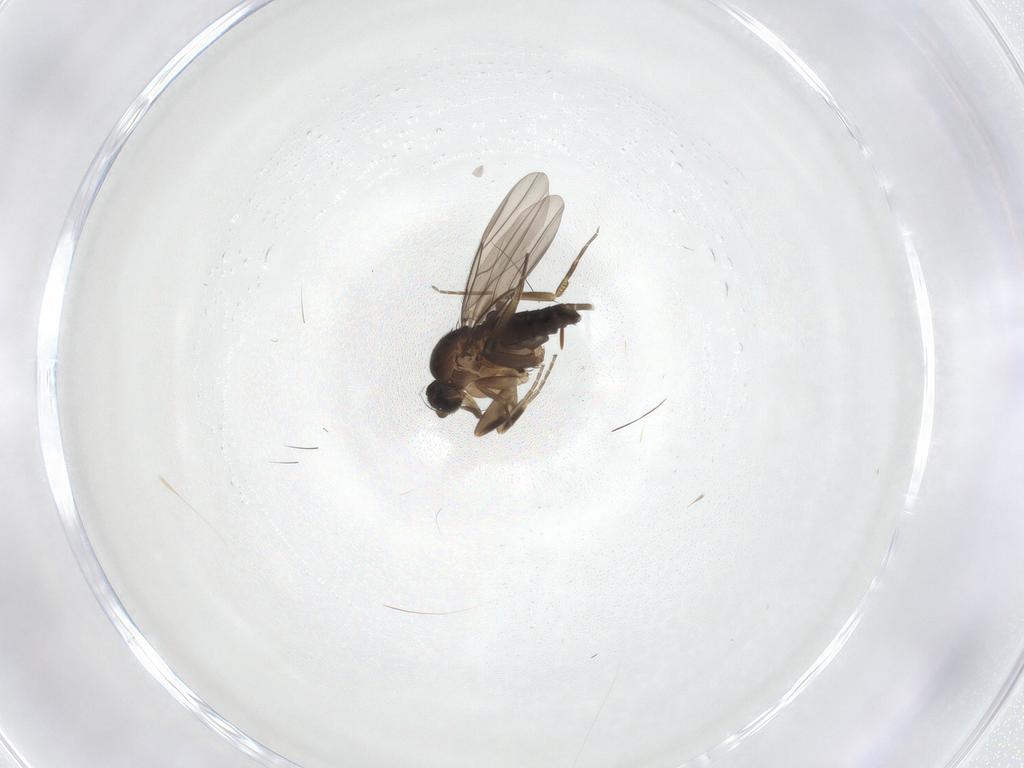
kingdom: Animalia
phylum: Arthropoda
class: Insecta
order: Diptera
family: Phoridae
